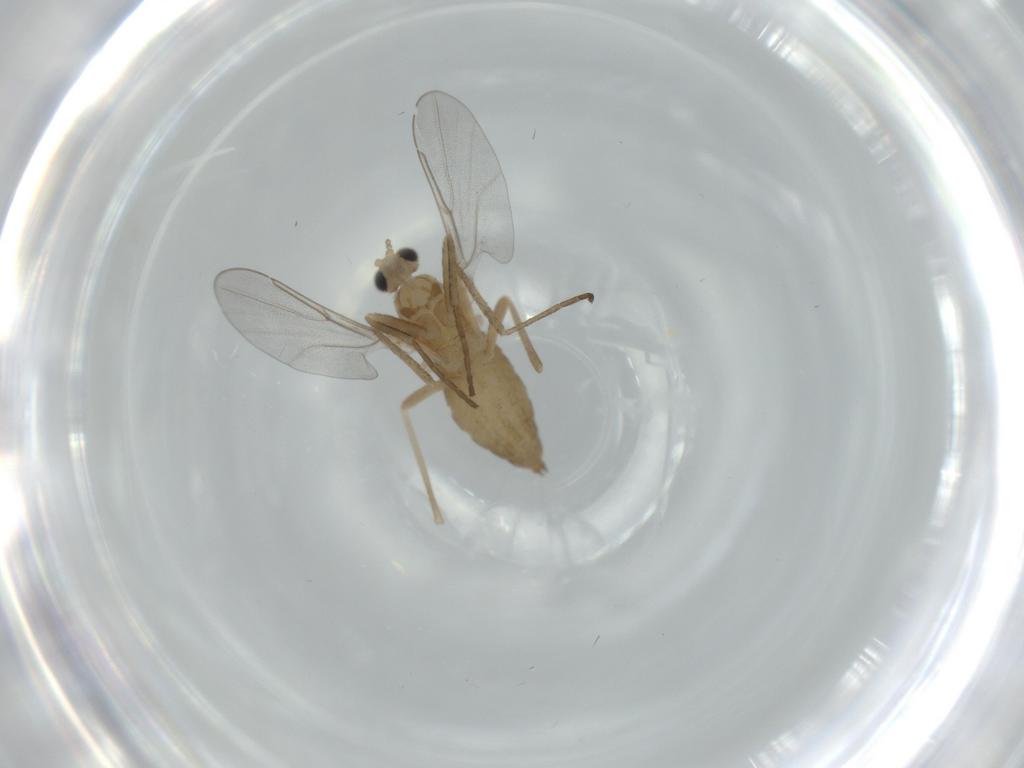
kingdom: Animalia
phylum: Arthropoda
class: Insecta
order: Diptera
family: Cecidomyiidae
